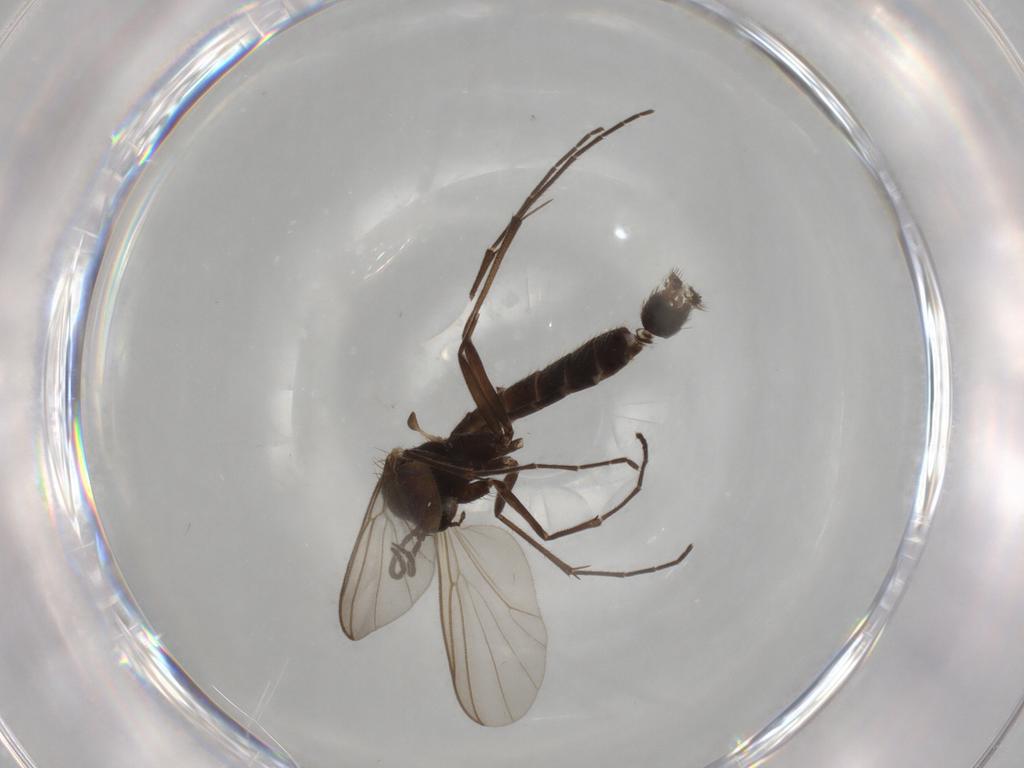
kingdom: Animalia
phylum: Arthropoda
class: Insecta
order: Diptera
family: Mycetophilidae
